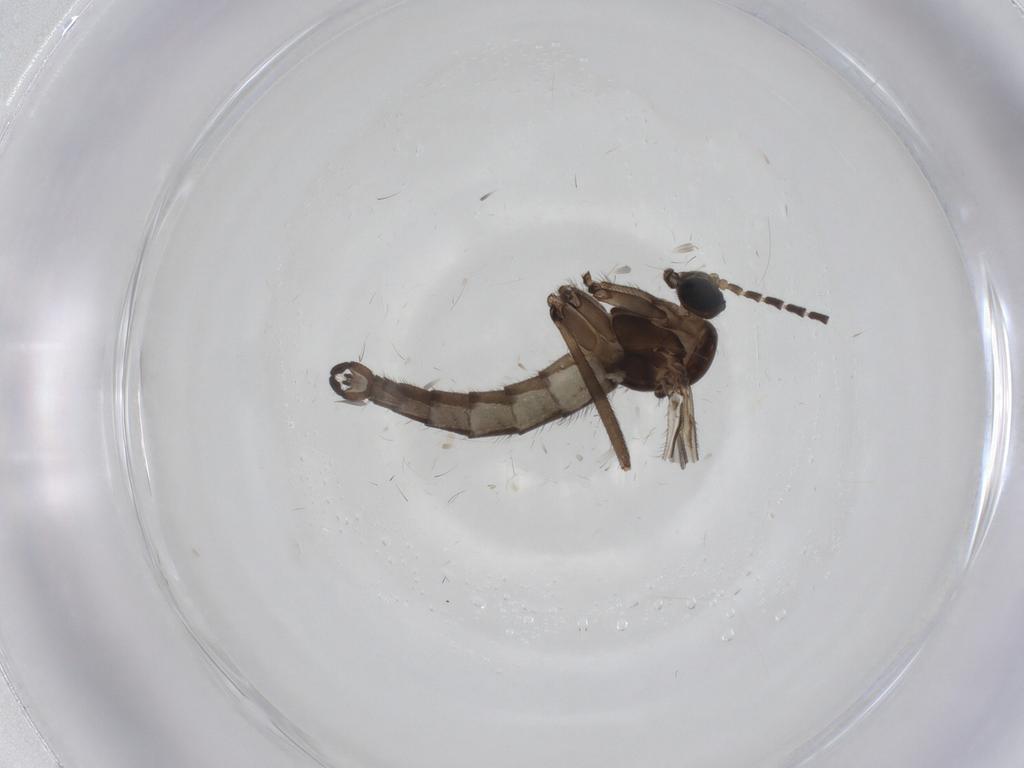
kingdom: Animalia
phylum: Arthropoda
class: Insecta
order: Diptera
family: Sciaridae
